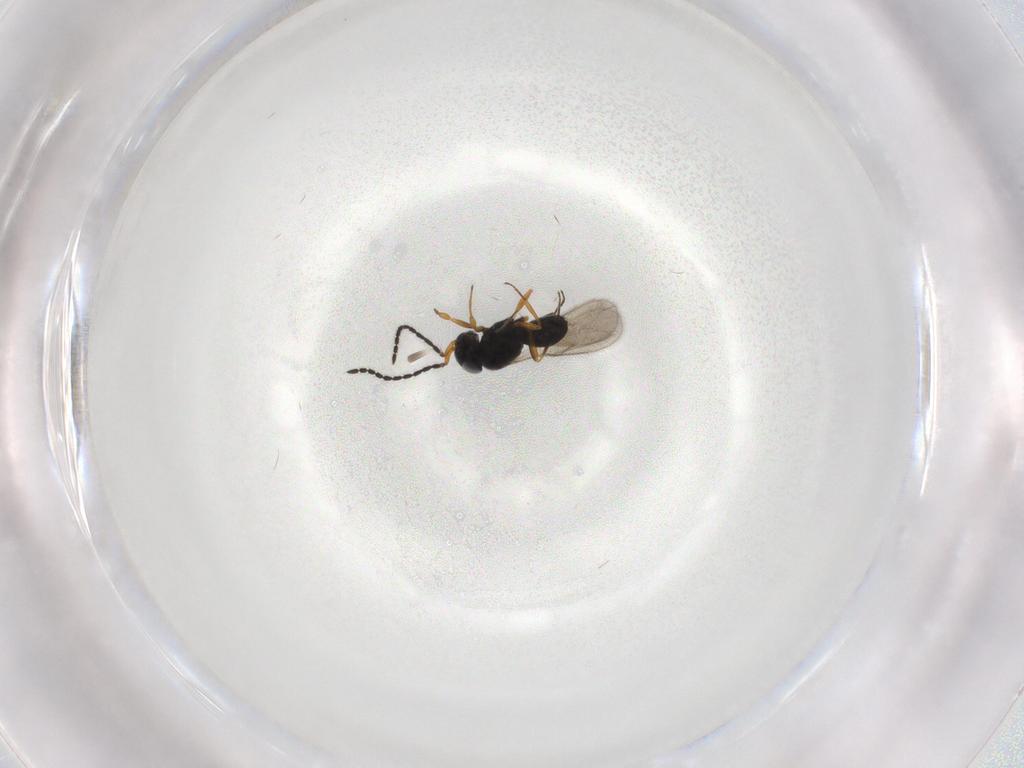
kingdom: Animalia
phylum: Arthropoda
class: Insecta
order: Hymenoptera
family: Scelionidae
